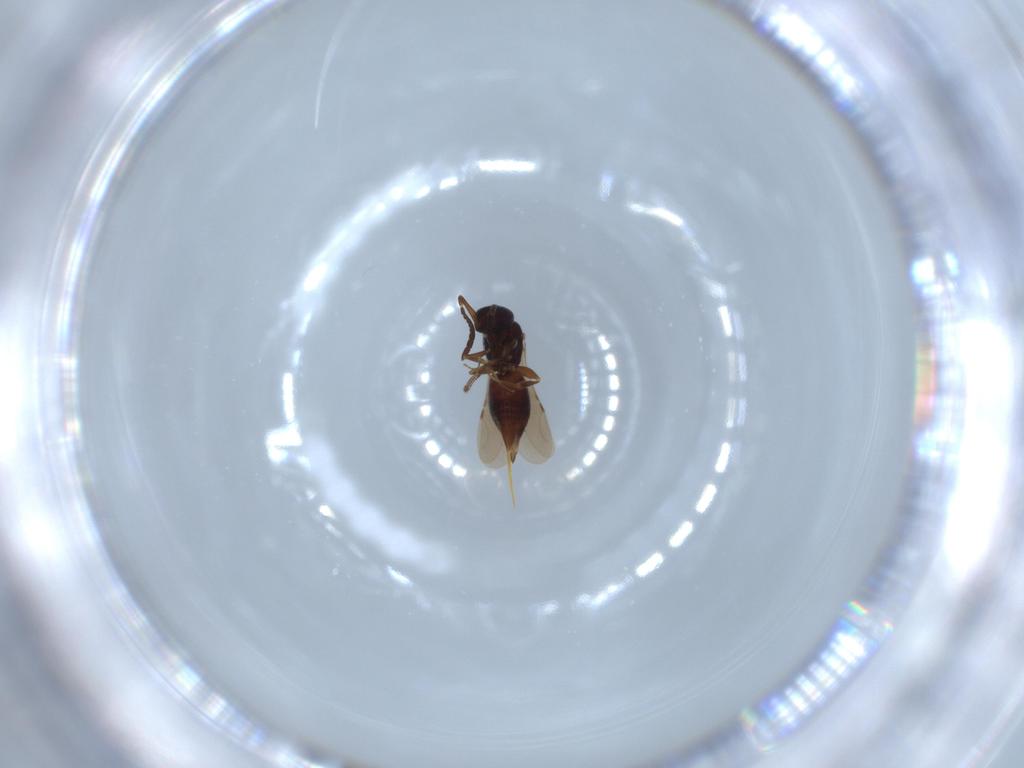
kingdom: Animalia
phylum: Arthropoda
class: Insecta
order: Hymenoptera
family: Ceraphronidae
